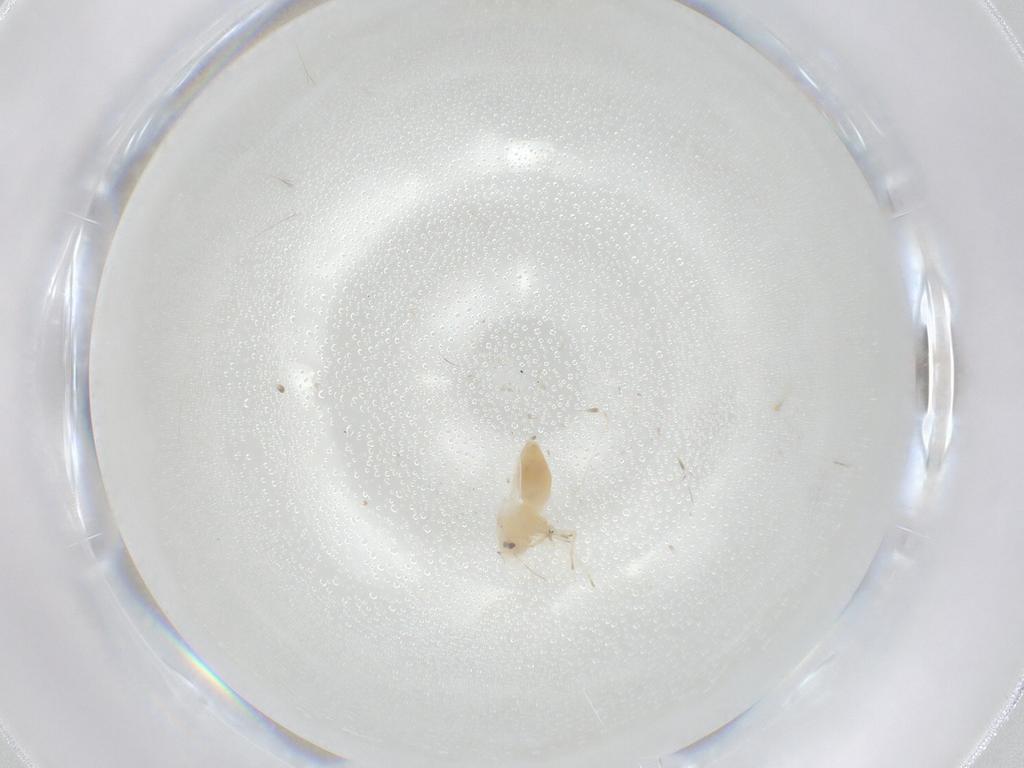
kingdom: Animalia
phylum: Arthropoda
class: Insecta
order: Hemiptera
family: Aleyrodidae
